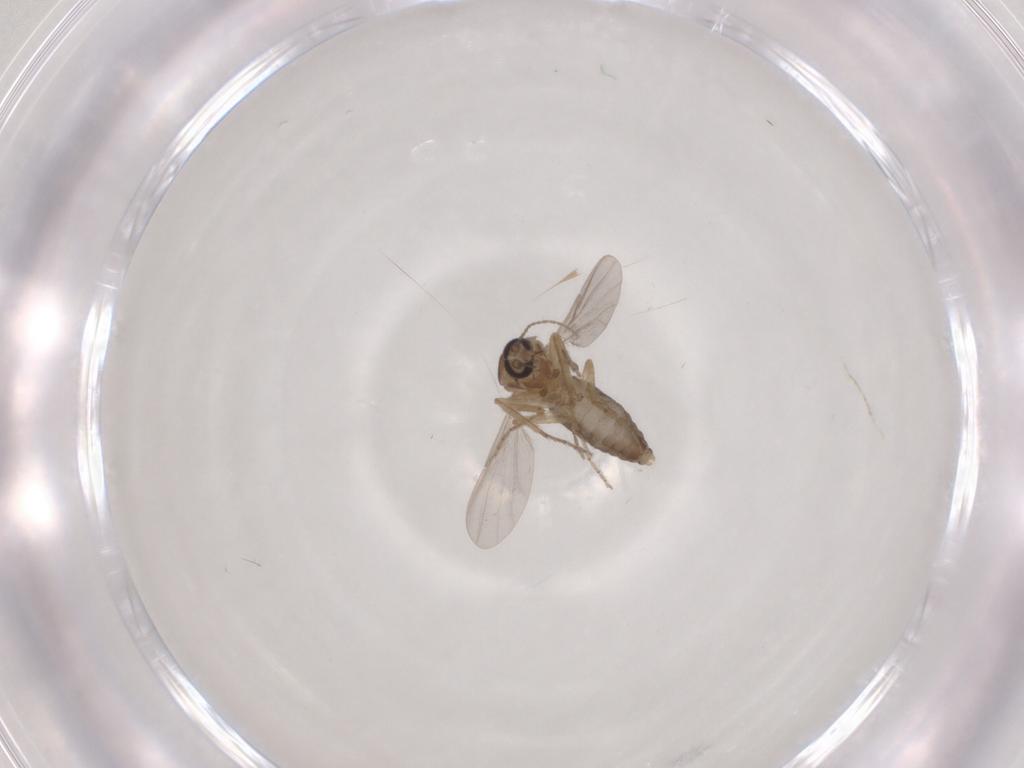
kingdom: Animalia
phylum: Arthropoda
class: Insecta
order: Diptera
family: Ceratopogonidae
